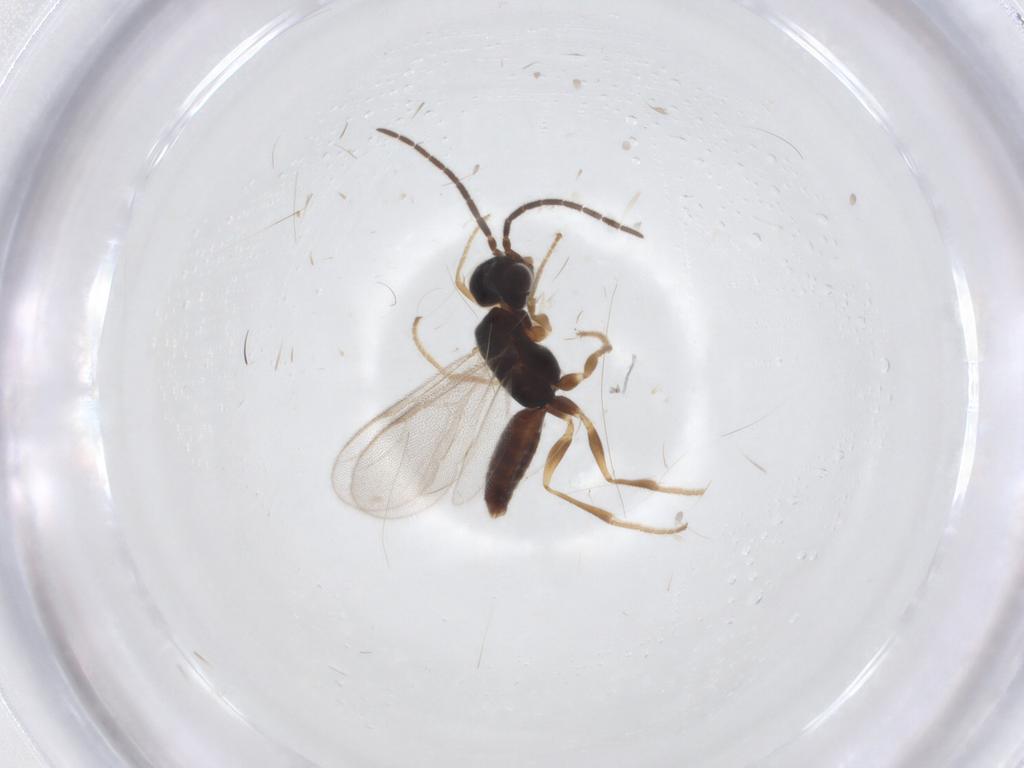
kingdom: Animalia
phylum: Arthropoda
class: Insecta
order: Hymenoptera
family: Dryinidae
